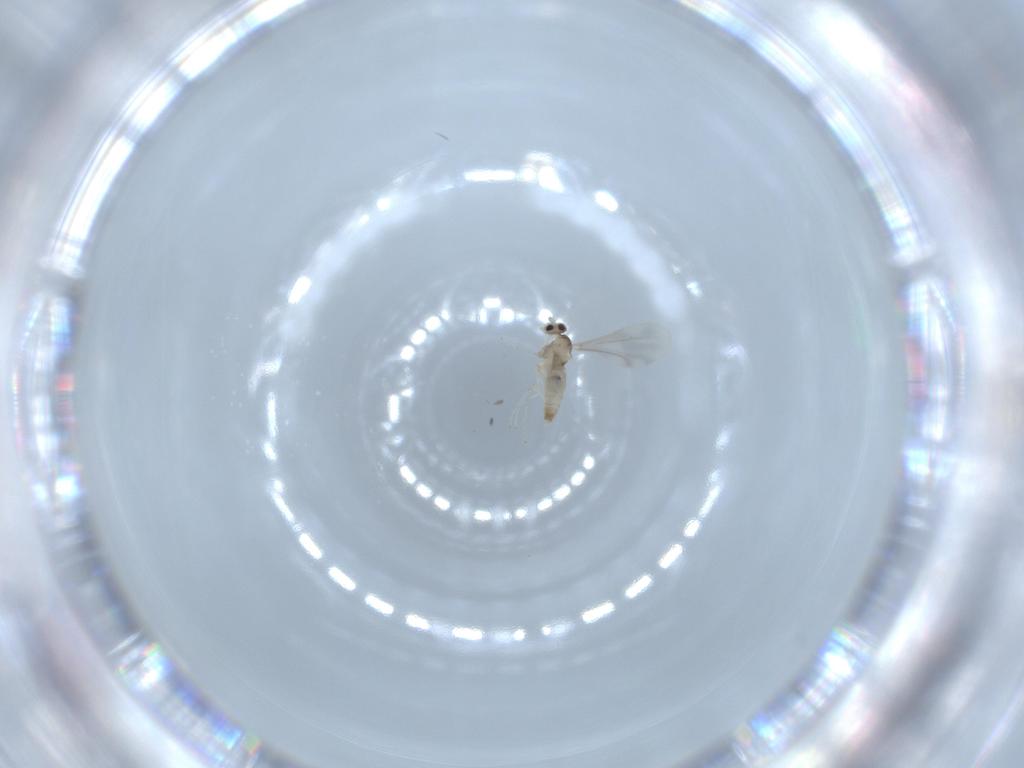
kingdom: Animalia
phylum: Arthropoda
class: Insecta
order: Diptera
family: Cecidomyiidae
